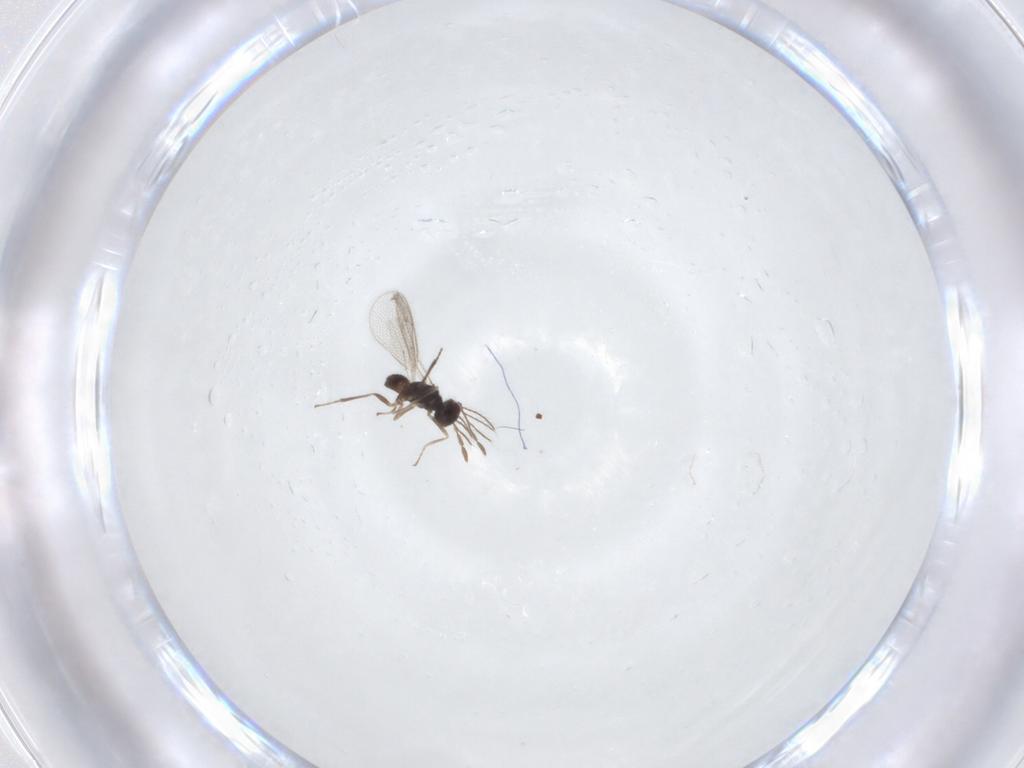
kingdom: Animalia
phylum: Arthropoda
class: Insecta
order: Hymenoptera
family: Eulophidae
